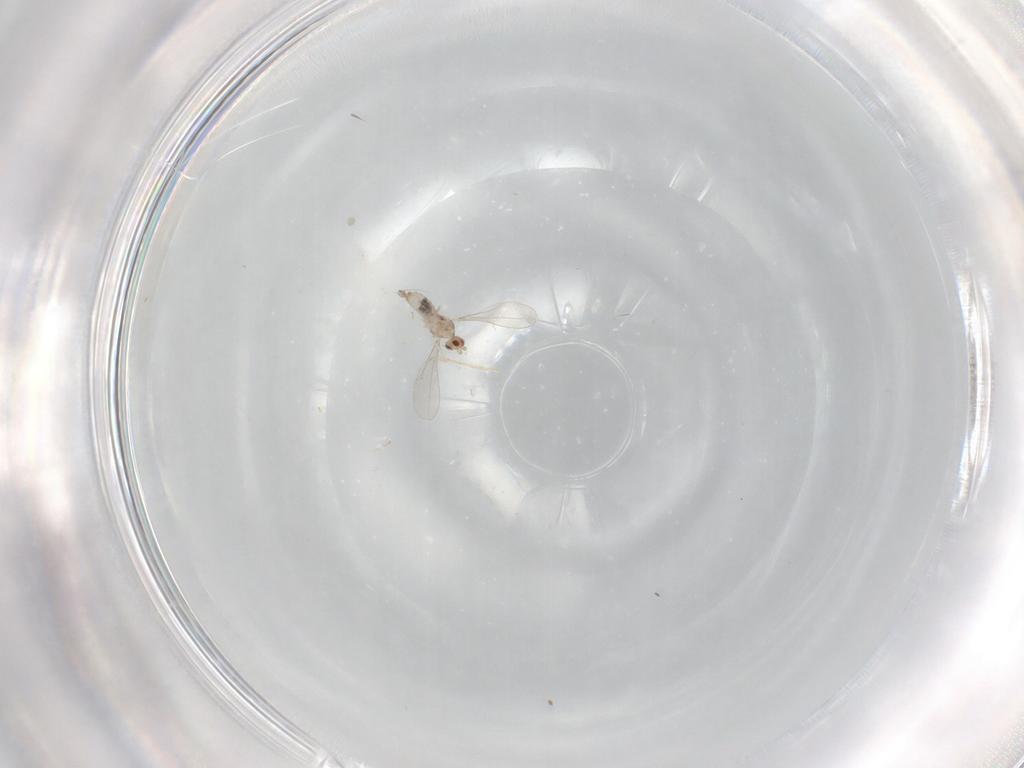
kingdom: Animalia
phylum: Arthropoda
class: Insecta
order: Diptera
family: Cecidomyiidae
